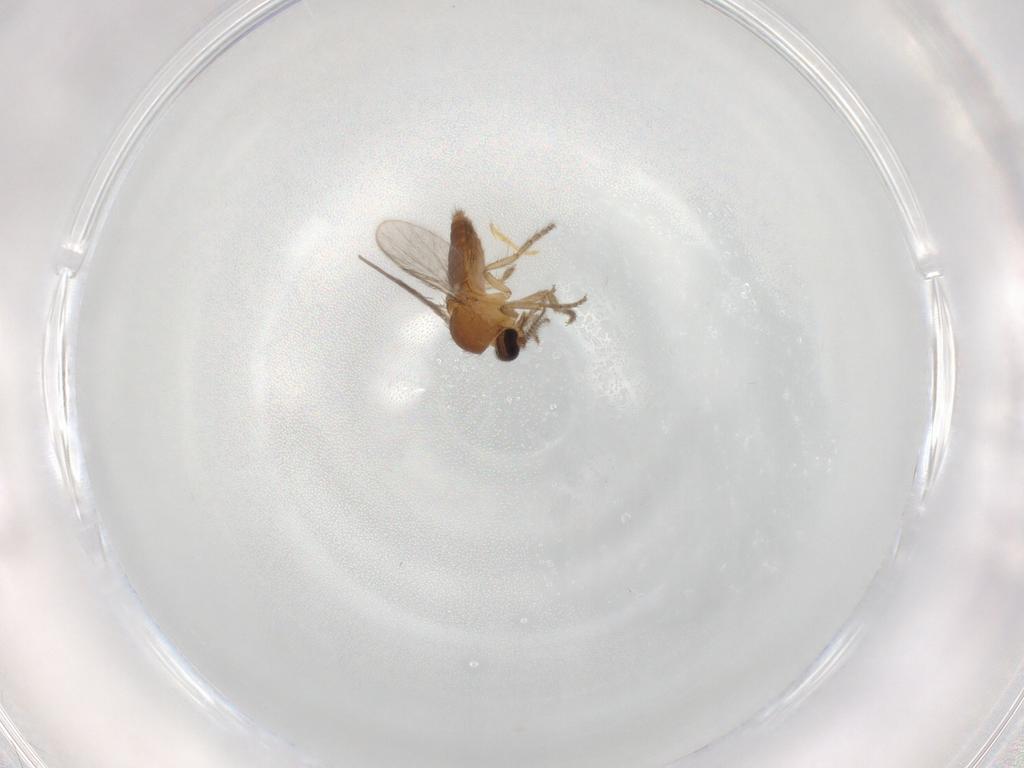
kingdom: Animalia
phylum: Arthropoda
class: Insecta
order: Diptera
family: Ceratopogonidae
